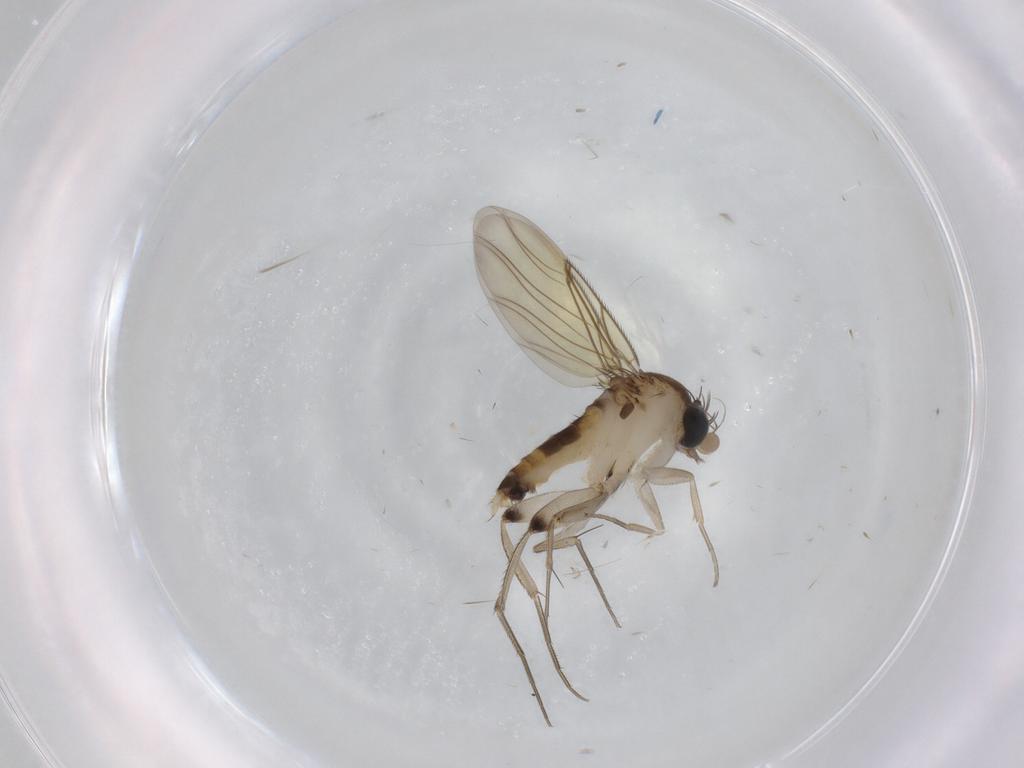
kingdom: Animalia
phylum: Arthropoda
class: Insecta
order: Diptera
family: Phoridae
